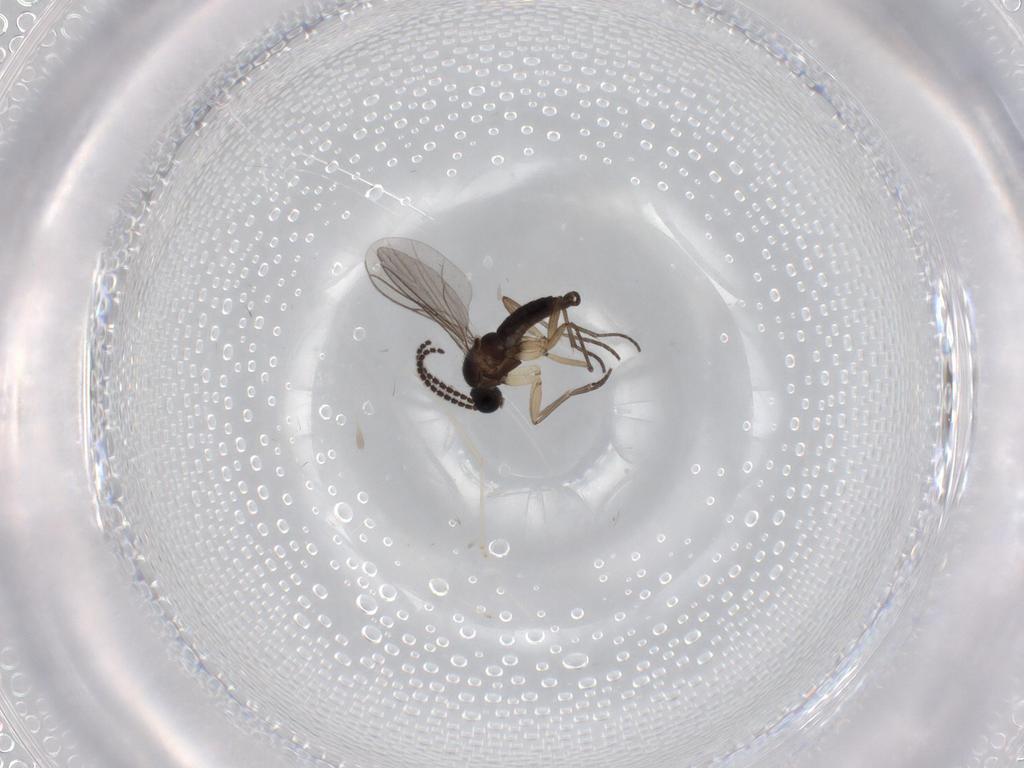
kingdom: Animalia
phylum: Arthropoda
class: Insecta
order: Diptera
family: Cecidomyiidae
